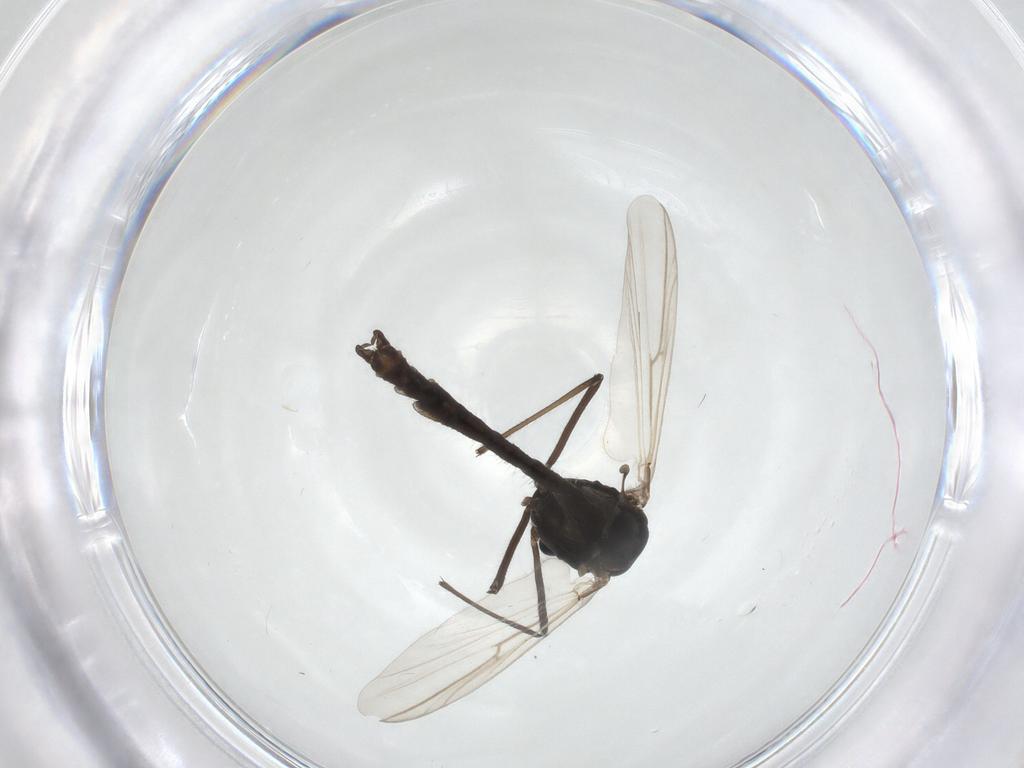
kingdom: Animalia
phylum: Arthropoda
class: Insecta
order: Diptera
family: Chironomidae
